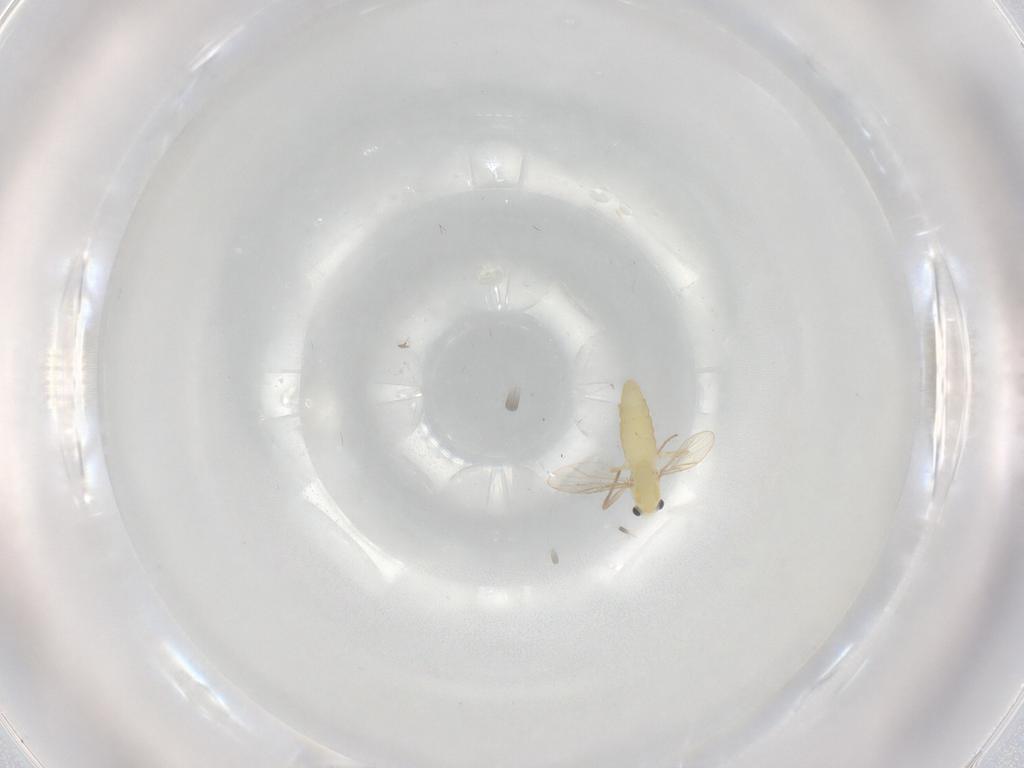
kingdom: Animalia
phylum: Arthropoda
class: Insecta
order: Diptera
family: Chironomidae
